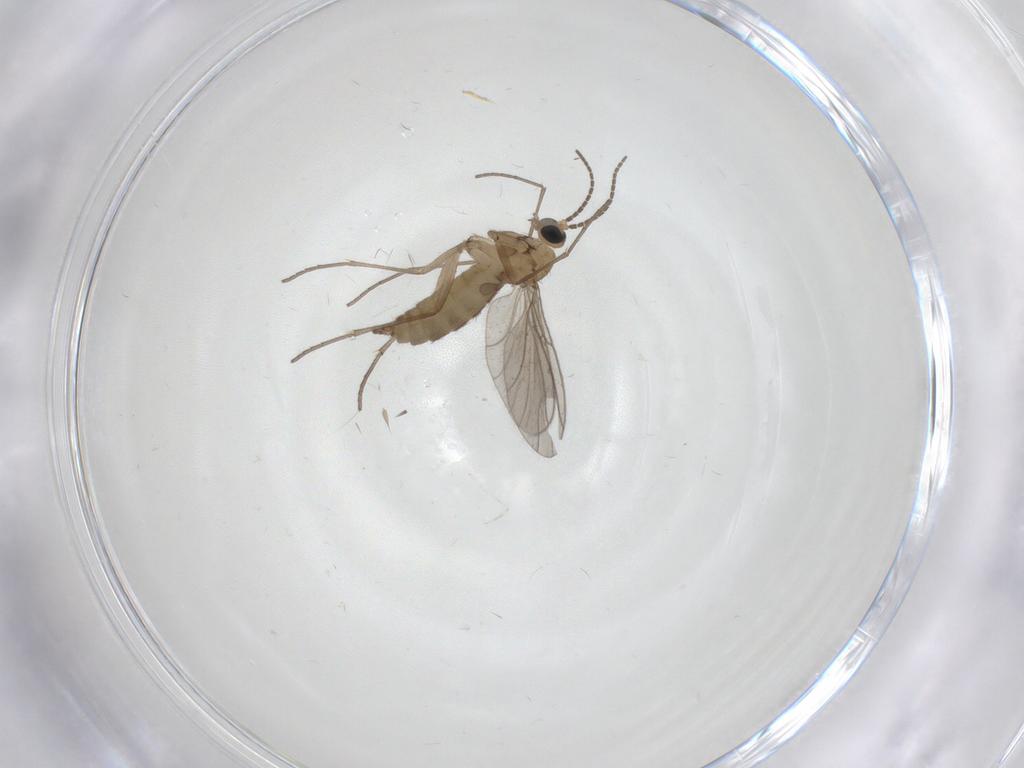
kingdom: Animalia
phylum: Arthropoda
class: Insecta
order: Diptera
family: Sciaridae
